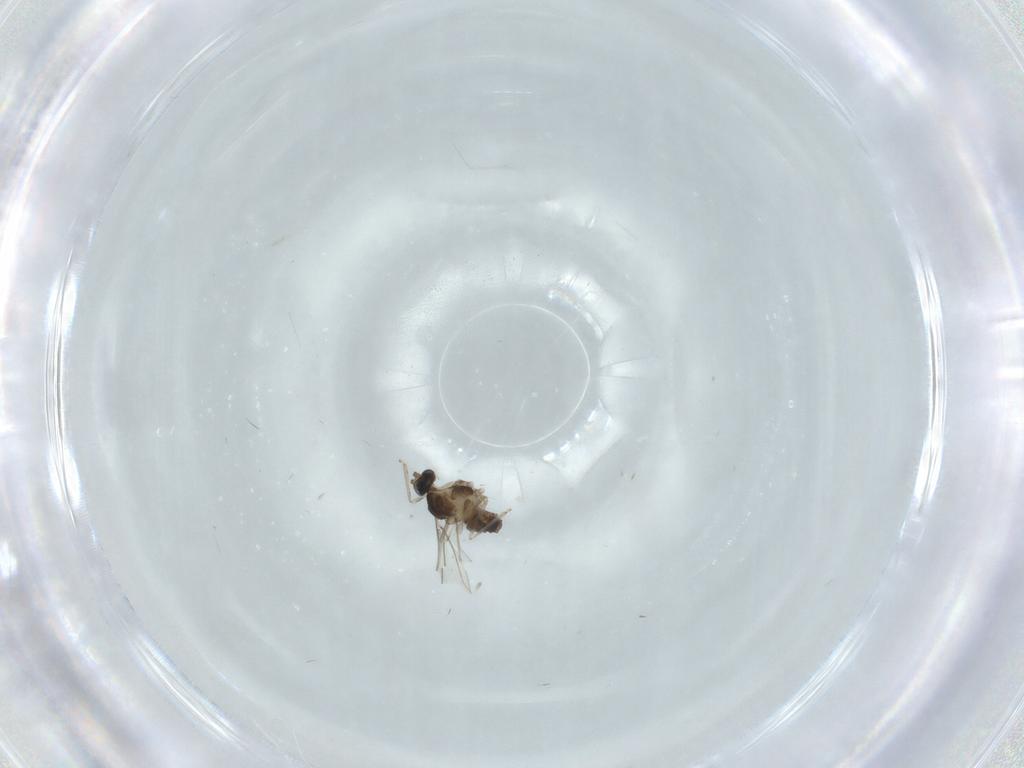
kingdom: Animalia
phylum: Arthropoda
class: Insecta
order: Diptera
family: Cecidomyiidae
